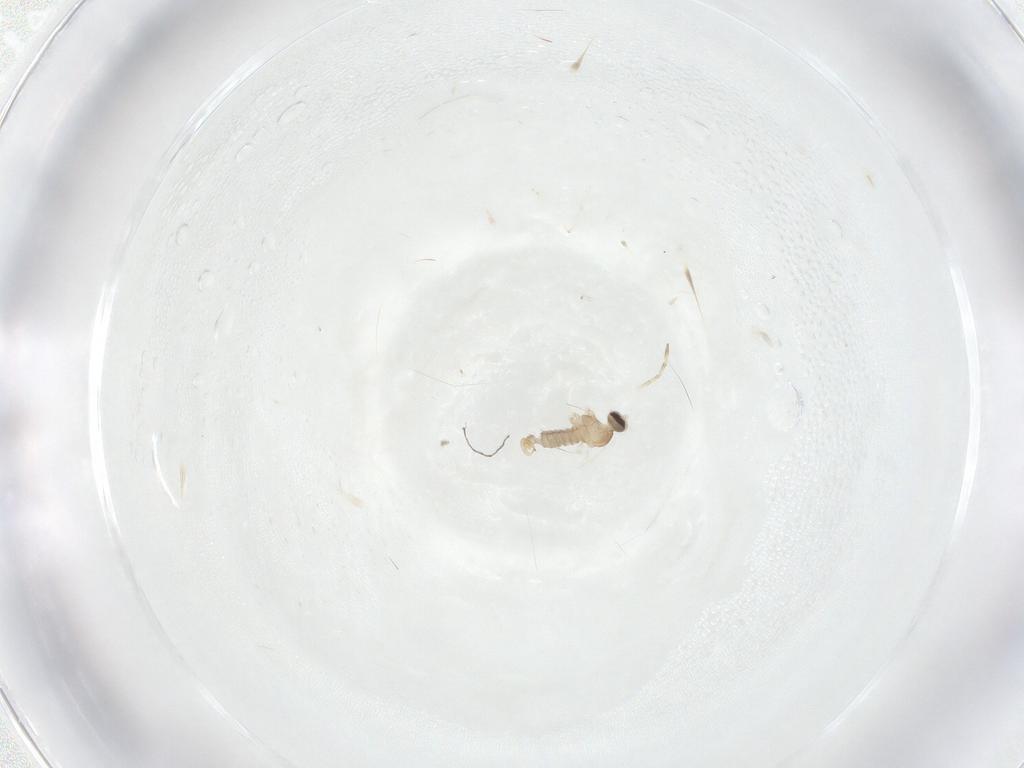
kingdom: Animalia
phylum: Arthropoda
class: Insecta
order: Diptera
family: Cecidomyiidae
